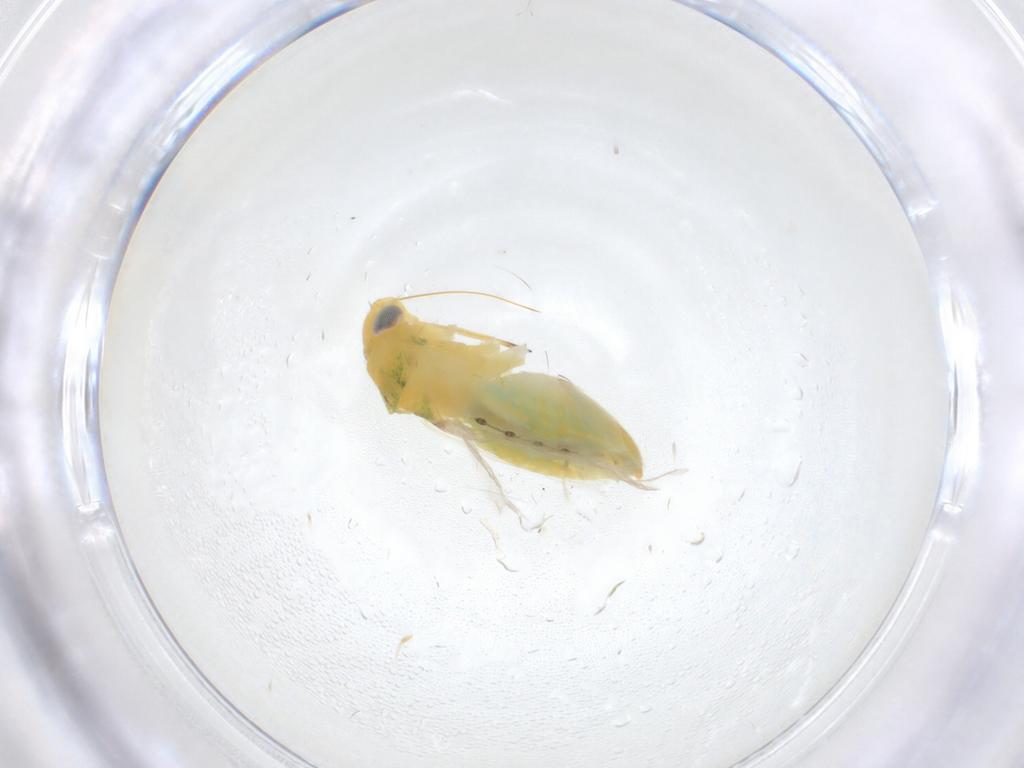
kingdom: Animalia
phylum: Arthropoda
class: Insecta
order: Hemiptera
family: Miridae
